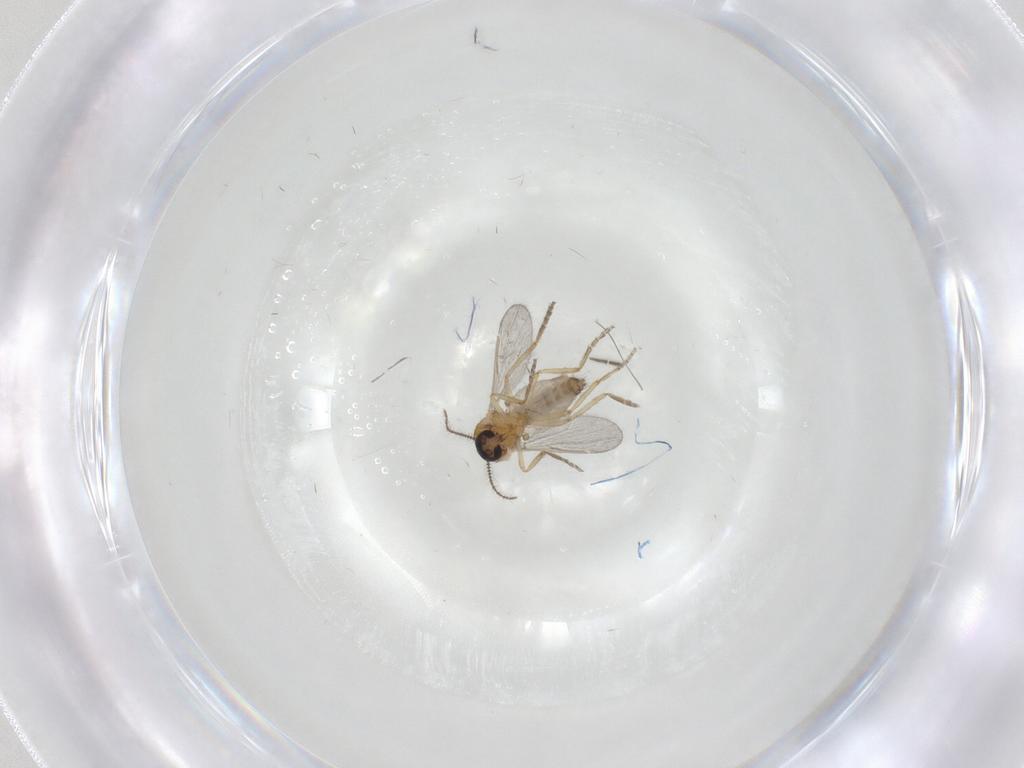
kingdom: Animalia
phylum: Arthropoda
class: Insecta
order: Diptera
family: Ceratopogonidae
